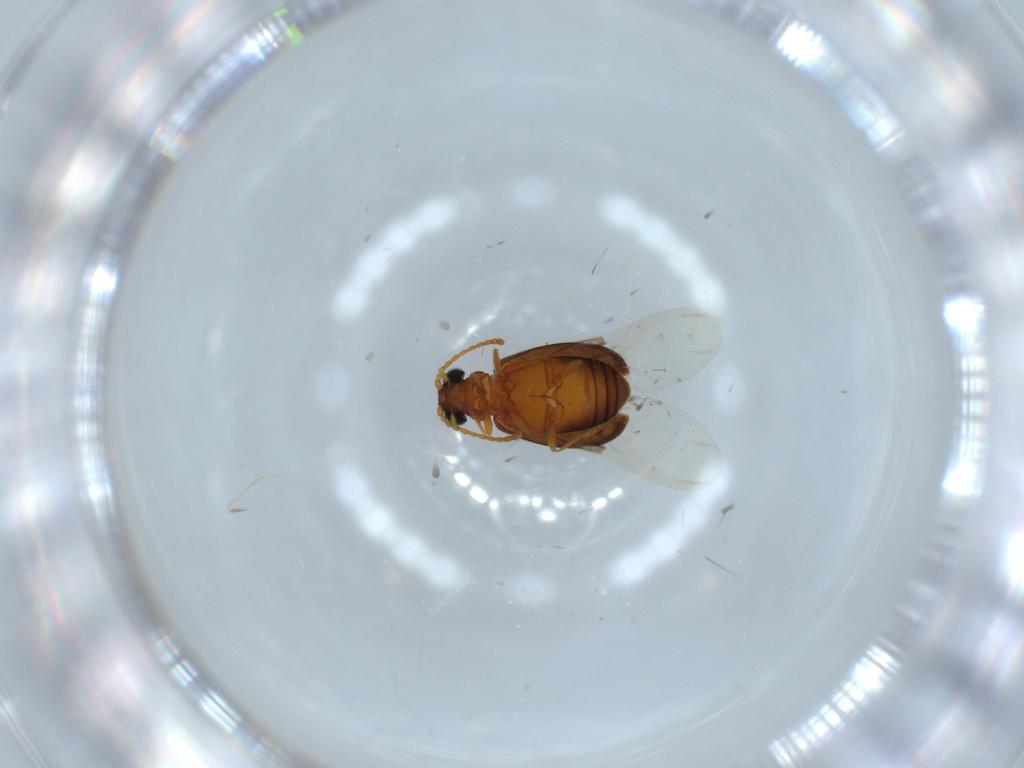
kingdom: Animalia
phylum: Arthropoda
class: Insecta
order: Coleoptera
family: Aderidae
